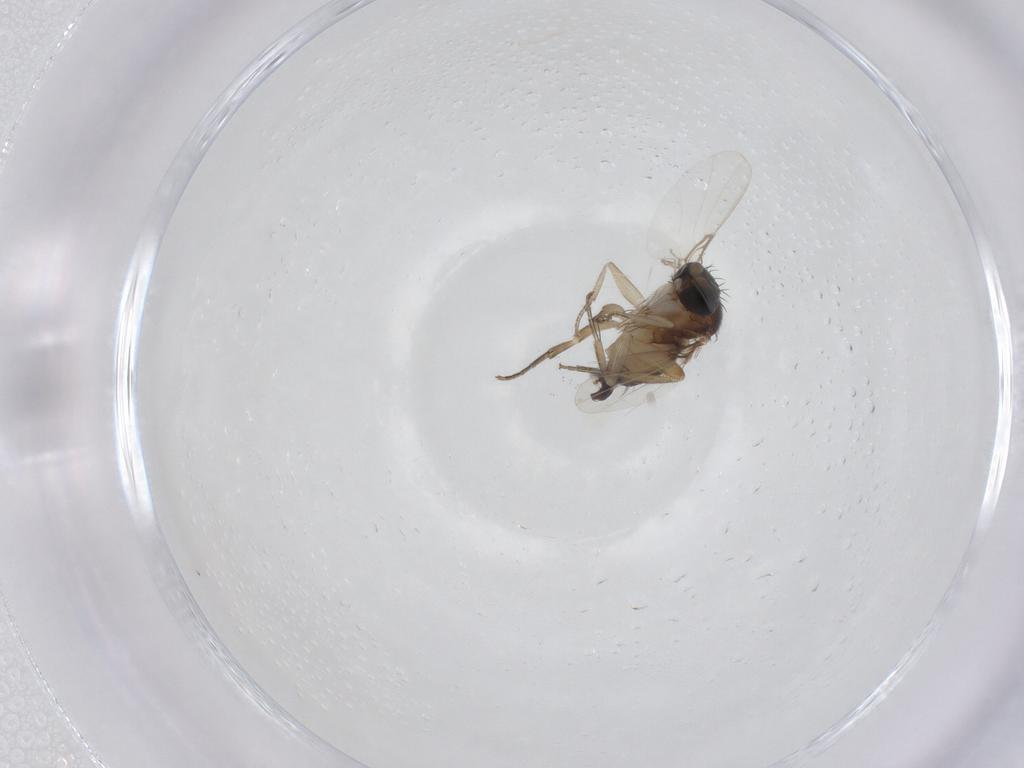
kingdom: Animalia
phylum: Arthropoda
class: Insecta
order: Diptera
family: Phoridae
